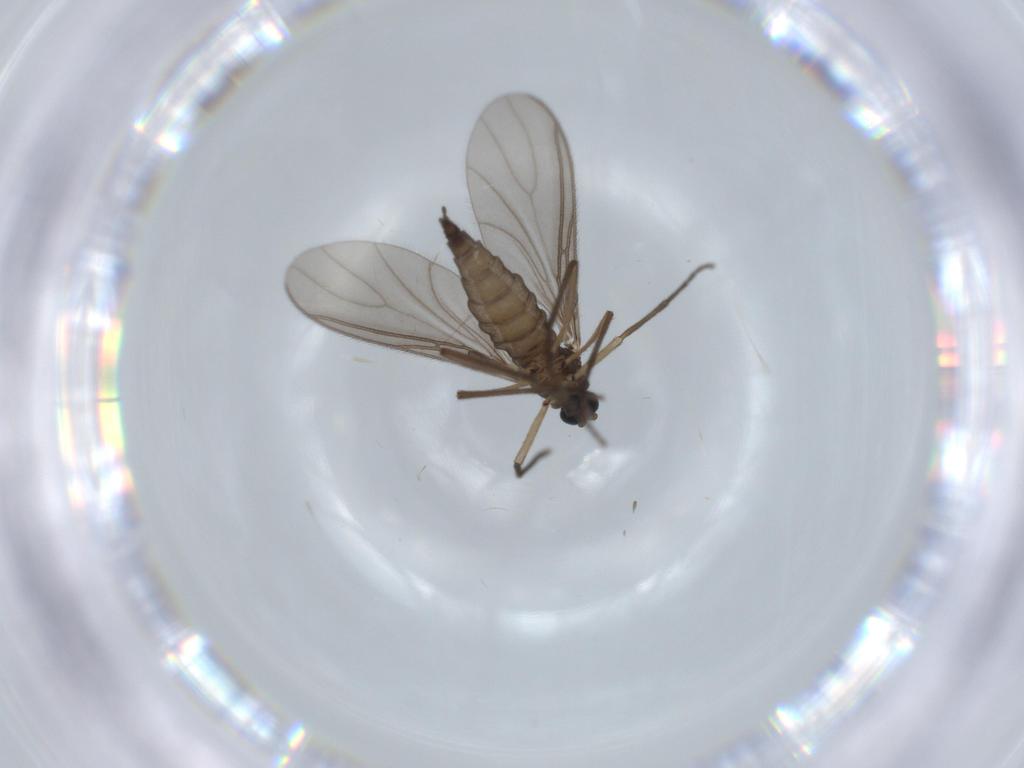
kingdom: Animalia
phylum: Arthropoda
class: Insecta
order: Diptera
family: Sciaridae
